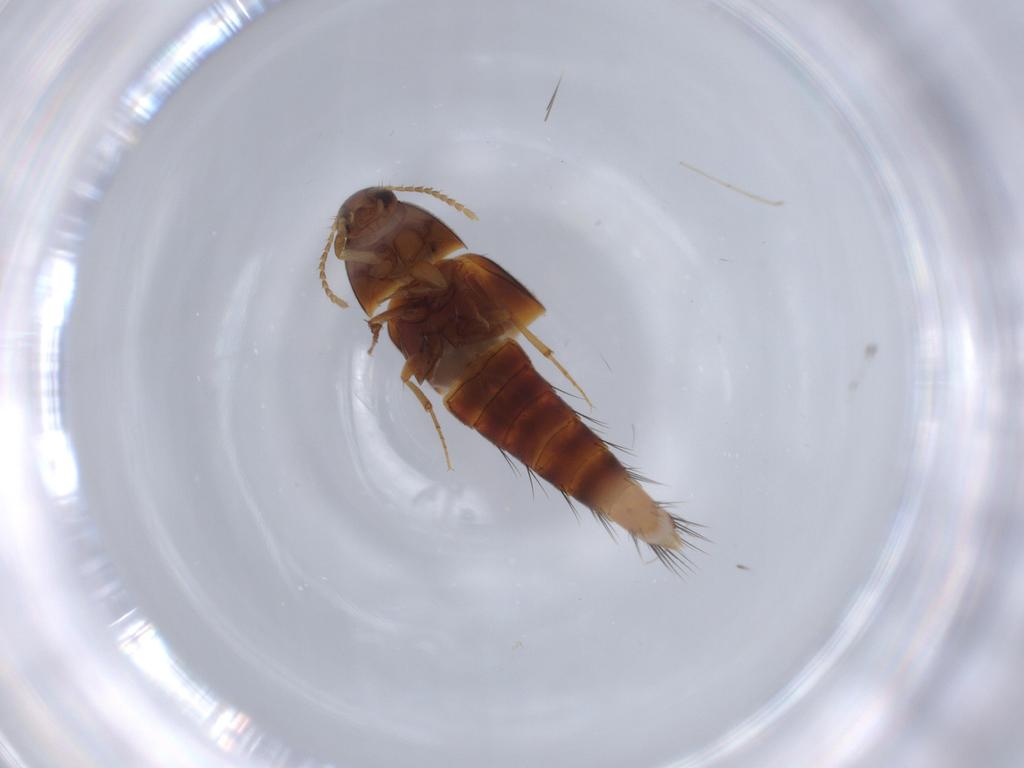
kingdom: Animalia
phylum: Arthropoda
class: Insecta
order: Coleoptera
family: Staphylinidae
